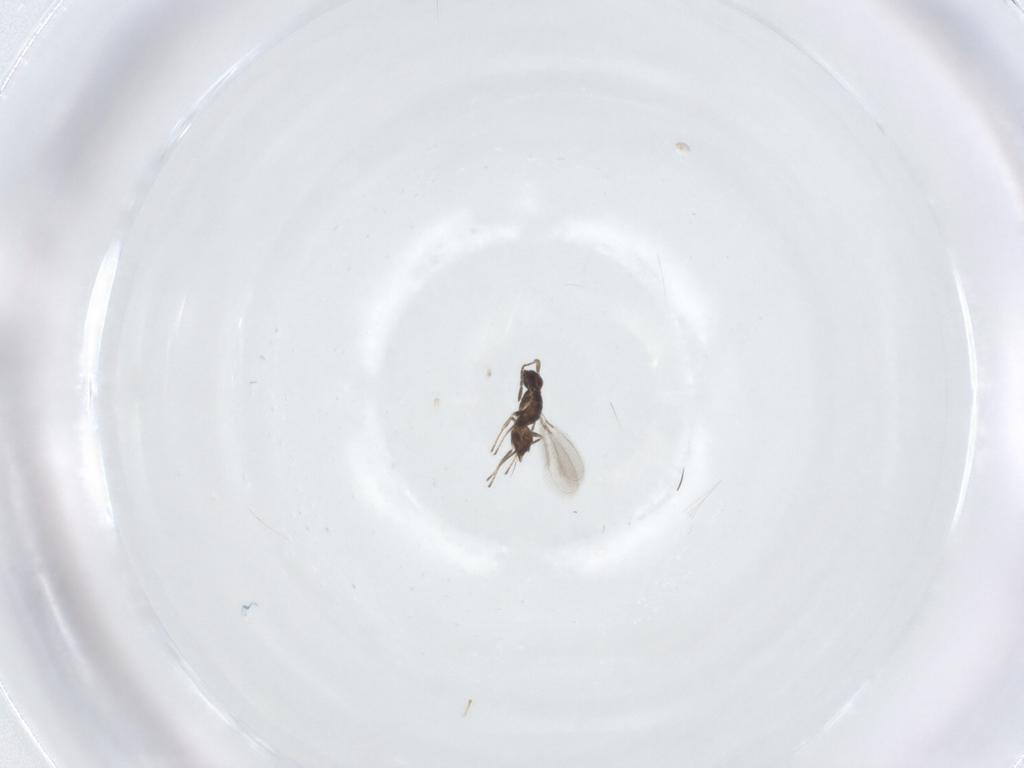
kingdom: Animalia
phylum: Arthropoda
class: Insecta
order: Hymenoptera
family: Mymaridae
